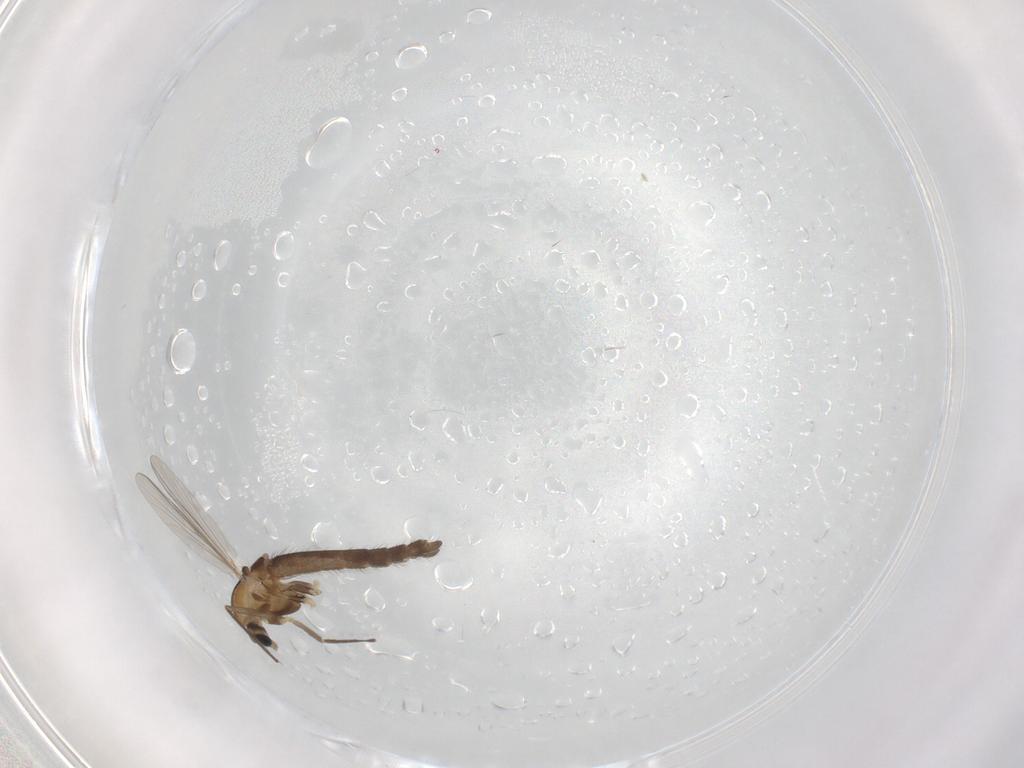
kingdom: Animalia
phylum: Arthropoda
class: Insecta
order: Diptera
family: Chironomidae
